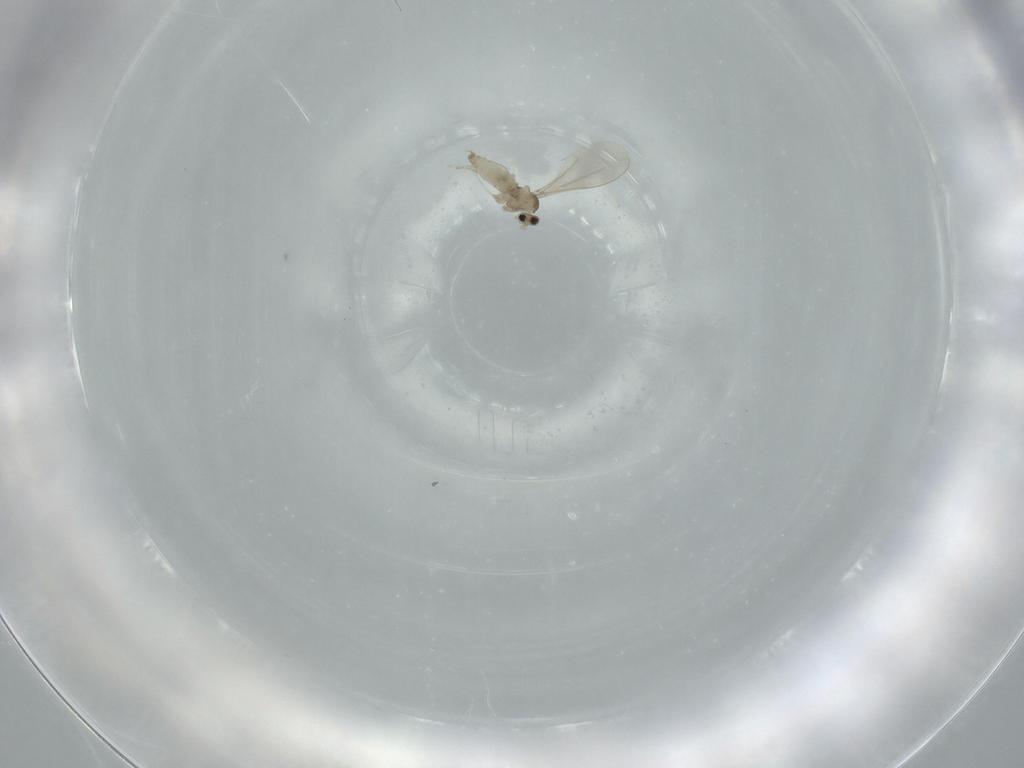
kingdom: Animalia
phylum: Arthropoda
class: Insecta
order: Diptera
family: Cecidomyiidae
